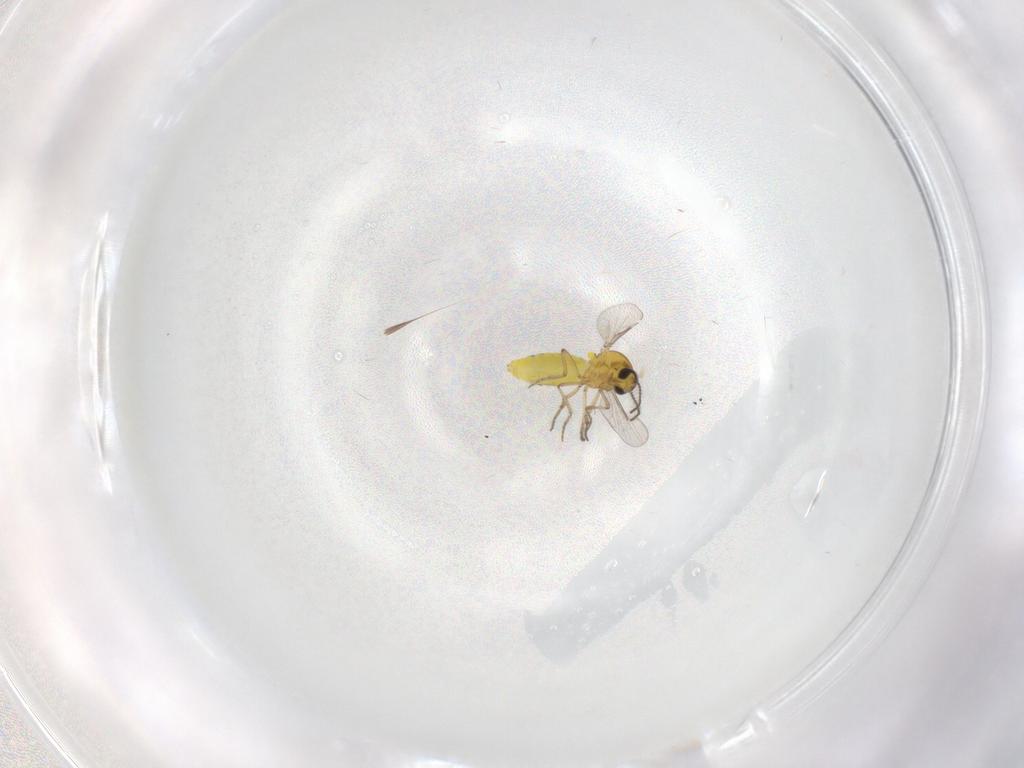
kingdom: Animalia
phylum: Arthropoda
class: Insecta
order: Diptera
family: Ceratopogonidae
